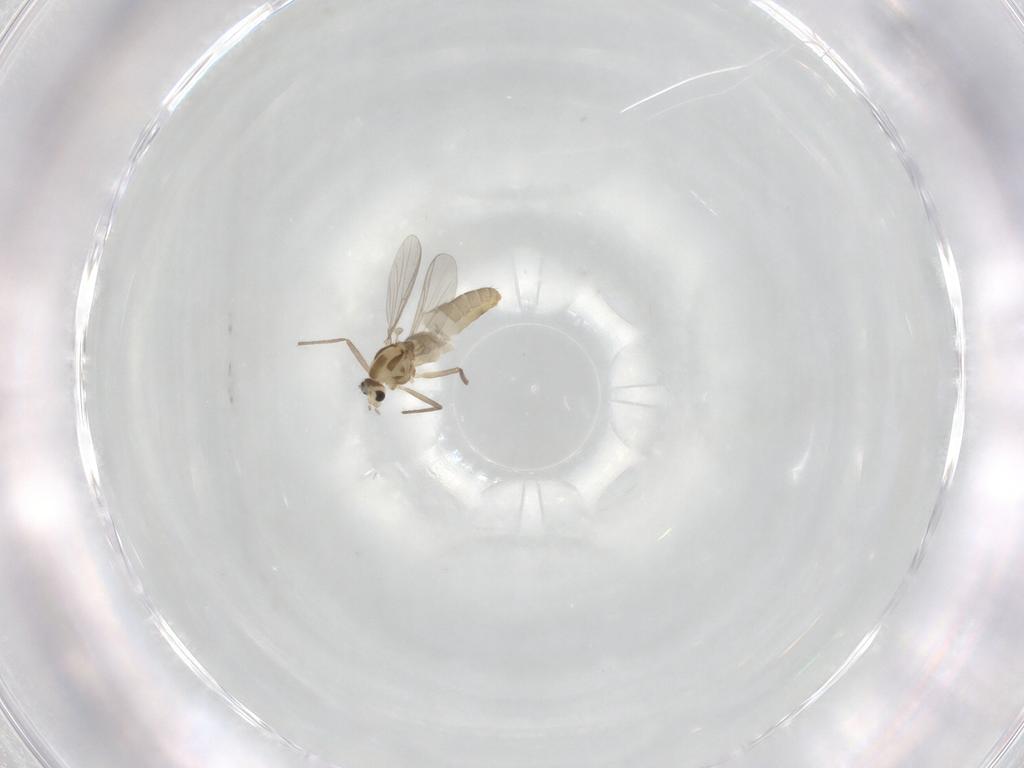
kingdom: Animalia
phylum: Arthropoda
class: Insecta
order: Diptera
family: Chironomidae
